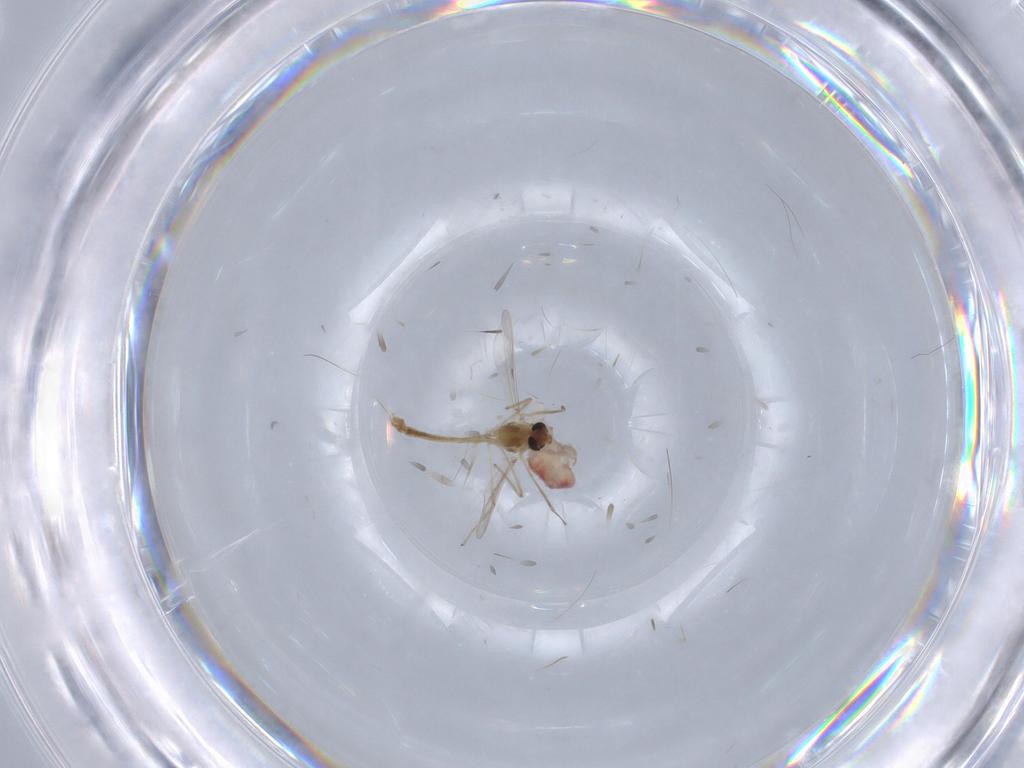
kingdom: Animalia
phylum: Arthropoda
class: Insecta
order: Diptera
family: Chironomidae
